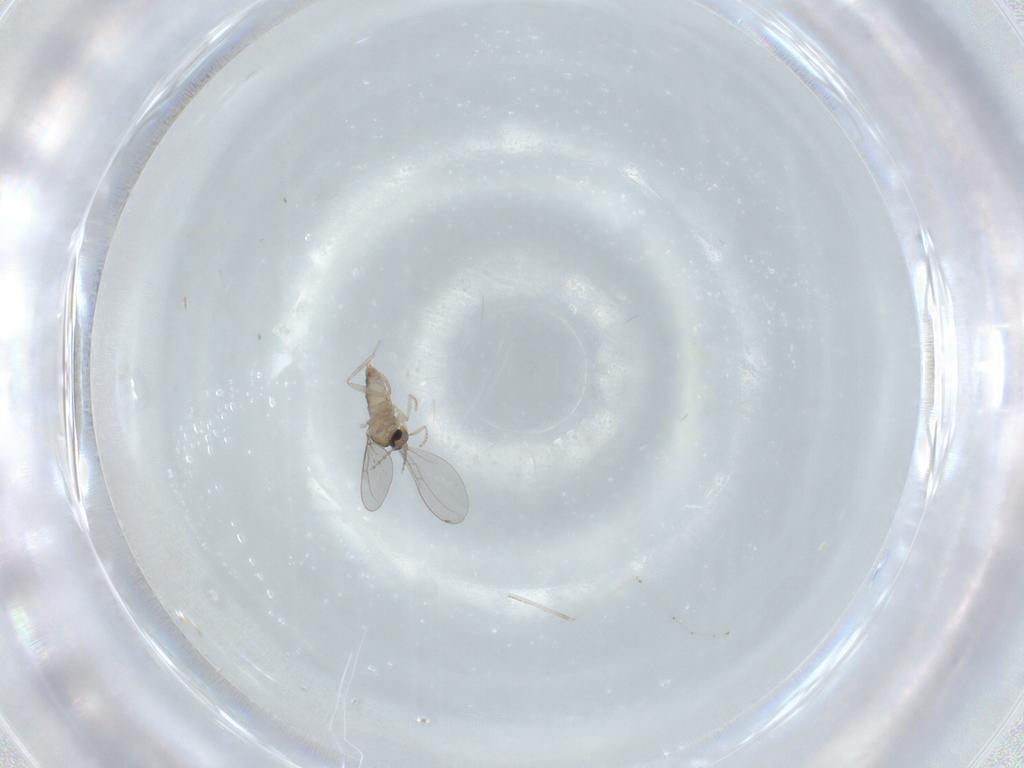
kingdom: Animalia
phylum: Arthropoda
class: Insecta
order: Diptera
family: Cecidomyiidae
